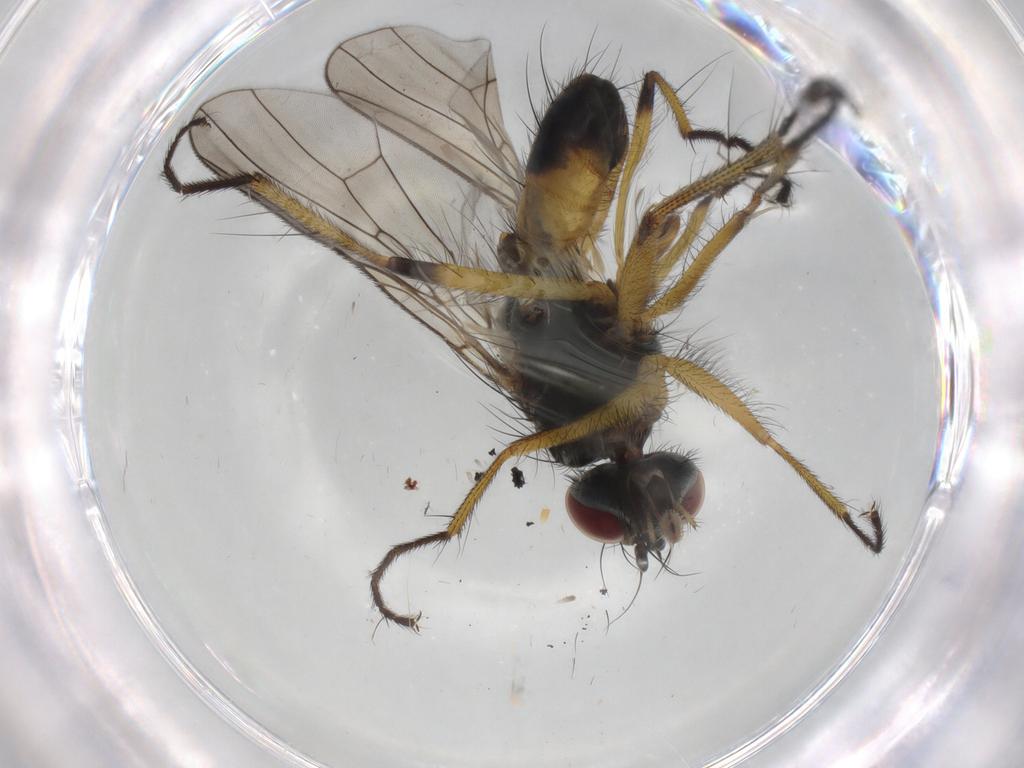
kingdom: Animalia
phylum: Arthropoda
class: Insecta
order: Diptera
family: Muscidae
